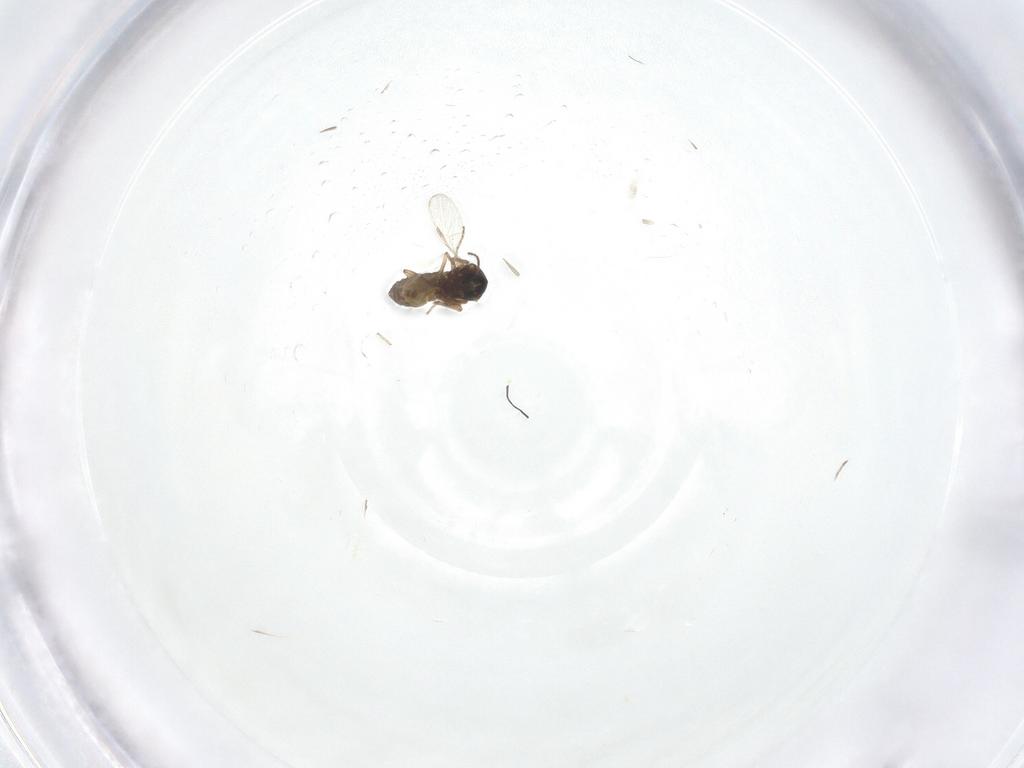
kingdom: Animalia
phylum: Arthropoda
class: Insecta
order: Diptera
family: Ceratopogonidae
